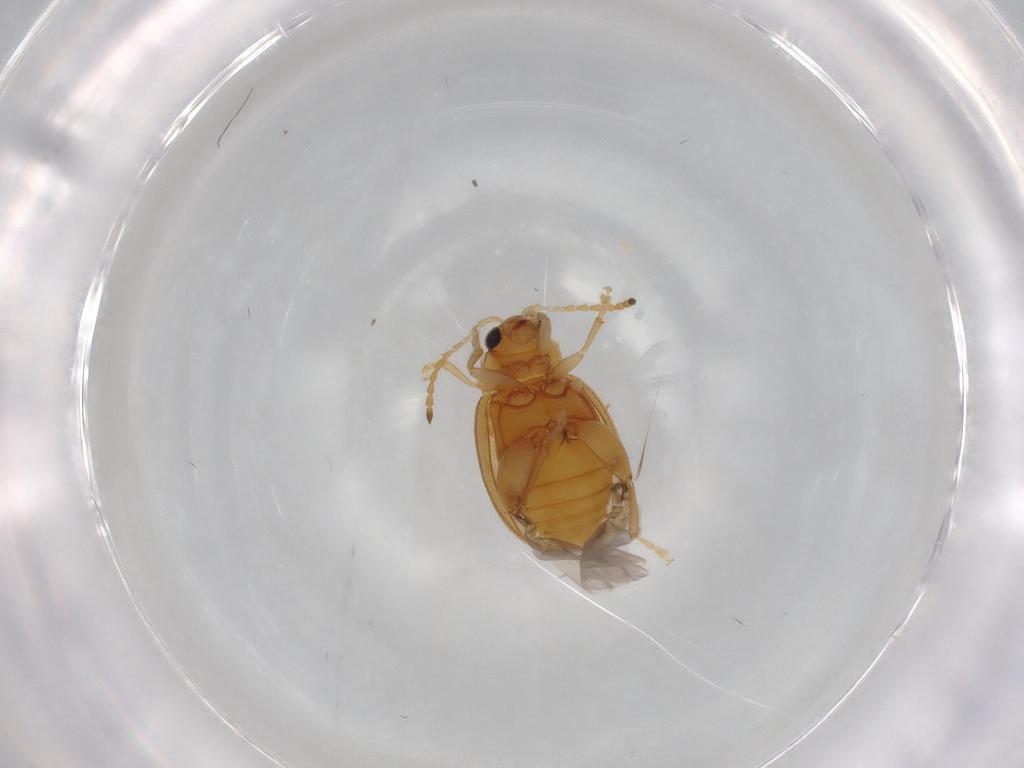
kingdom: Animalia
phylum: Arthropoda
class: Insecta
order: Coleoptera
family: Chrysomelidae
